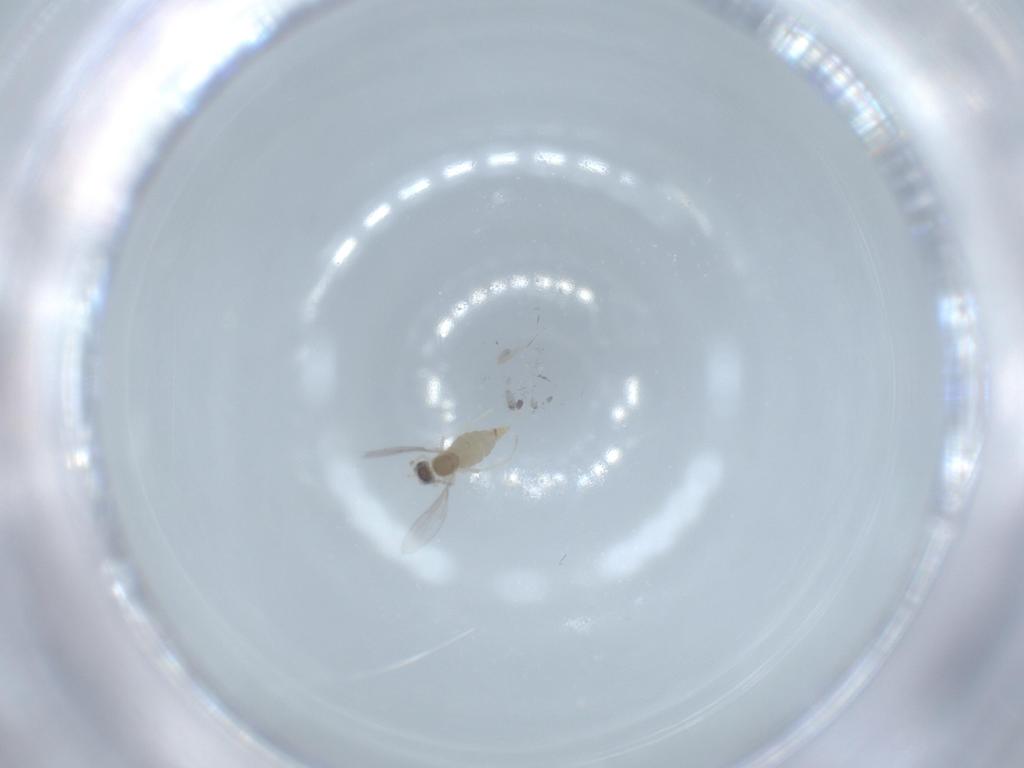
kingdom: Animalia
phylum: Arthropoda
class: Insecta
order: Diptera
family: Cecidomyiidae
